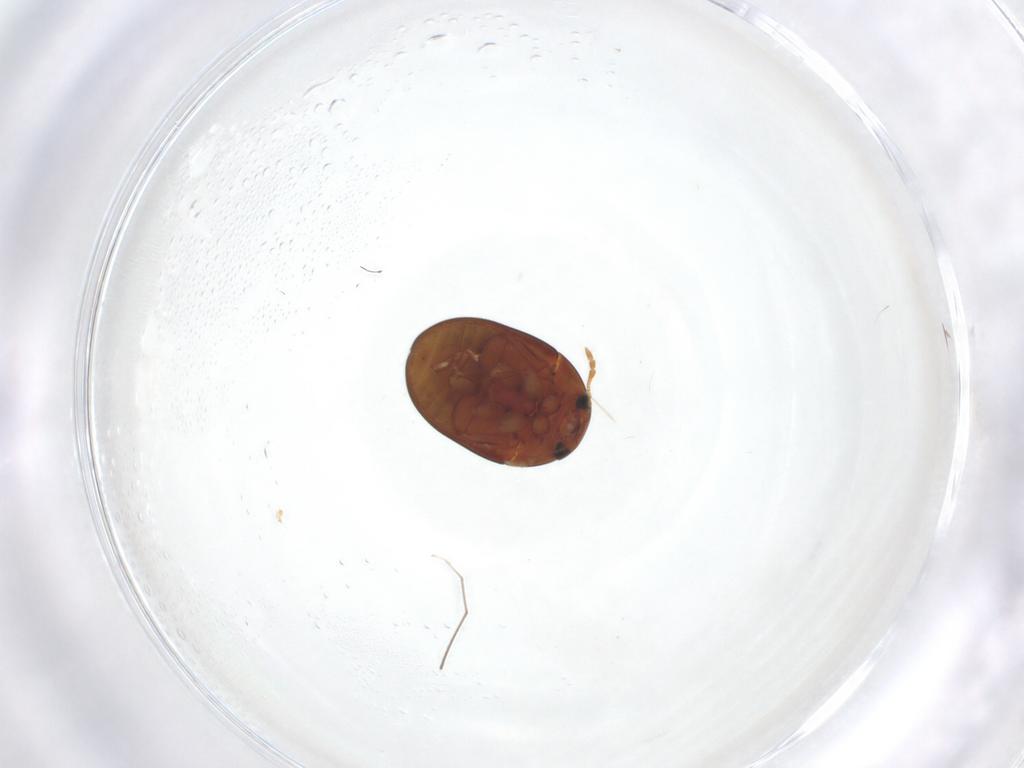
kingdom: Animalia
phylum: Arthropoda
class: Insecta
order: Coleoptera
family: Phalacridae
